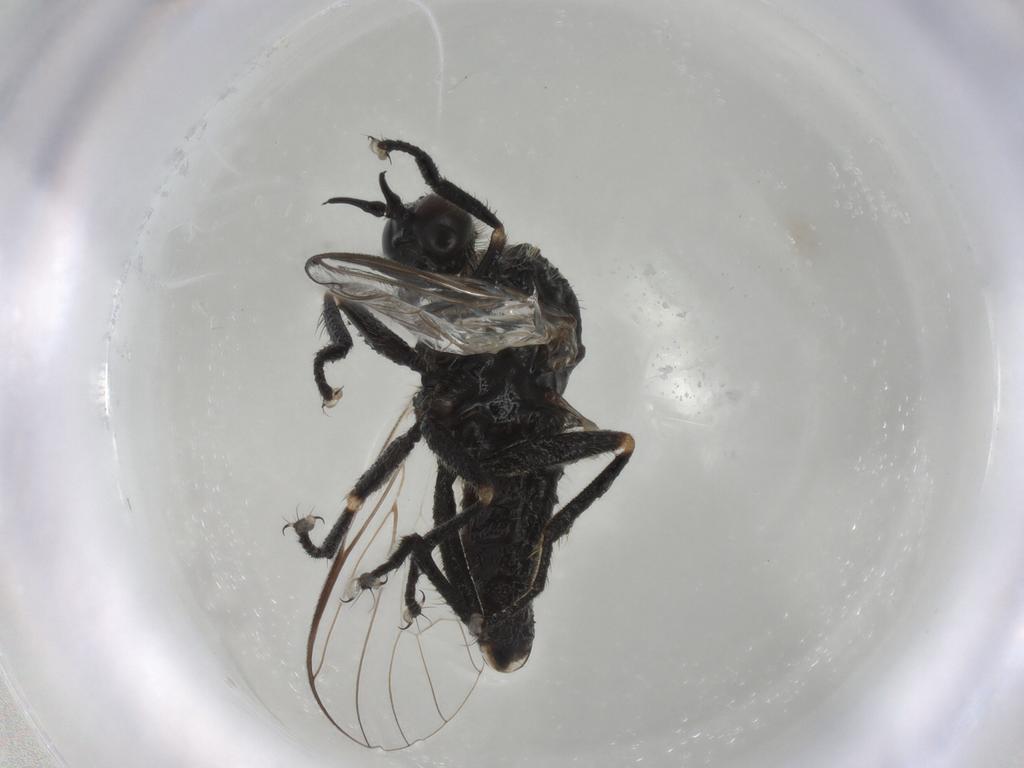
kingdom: Animalia
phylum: Arthropoda
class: Insecta
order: Diptera
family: Empididae
